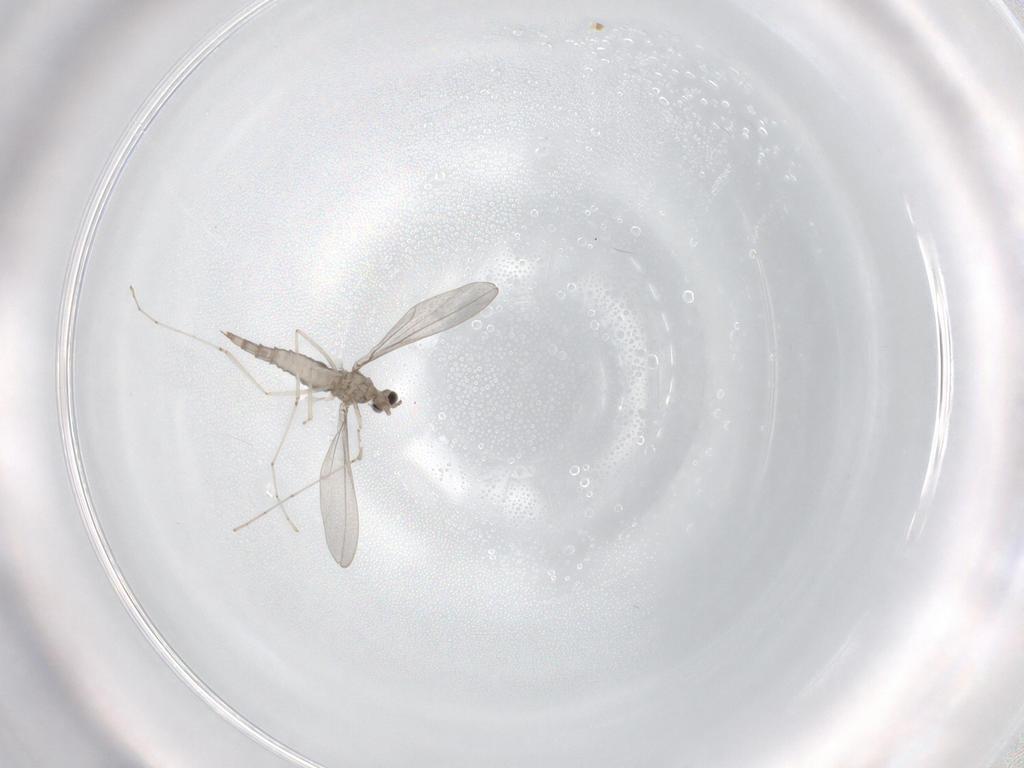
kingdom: Animalia
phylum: Arthropoda
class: Insecta
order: Diptera
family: Cecidomyiidae
